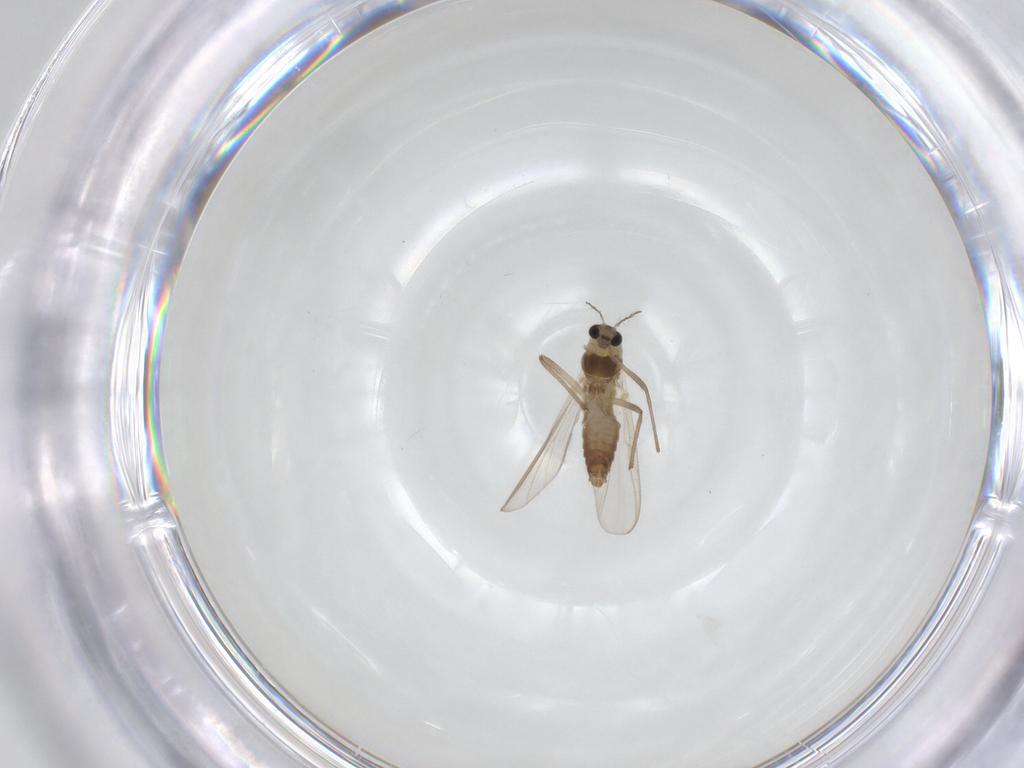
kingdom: Animalia
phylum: Arthropoda
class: Insecta
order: Diptera
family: Chironomidae
